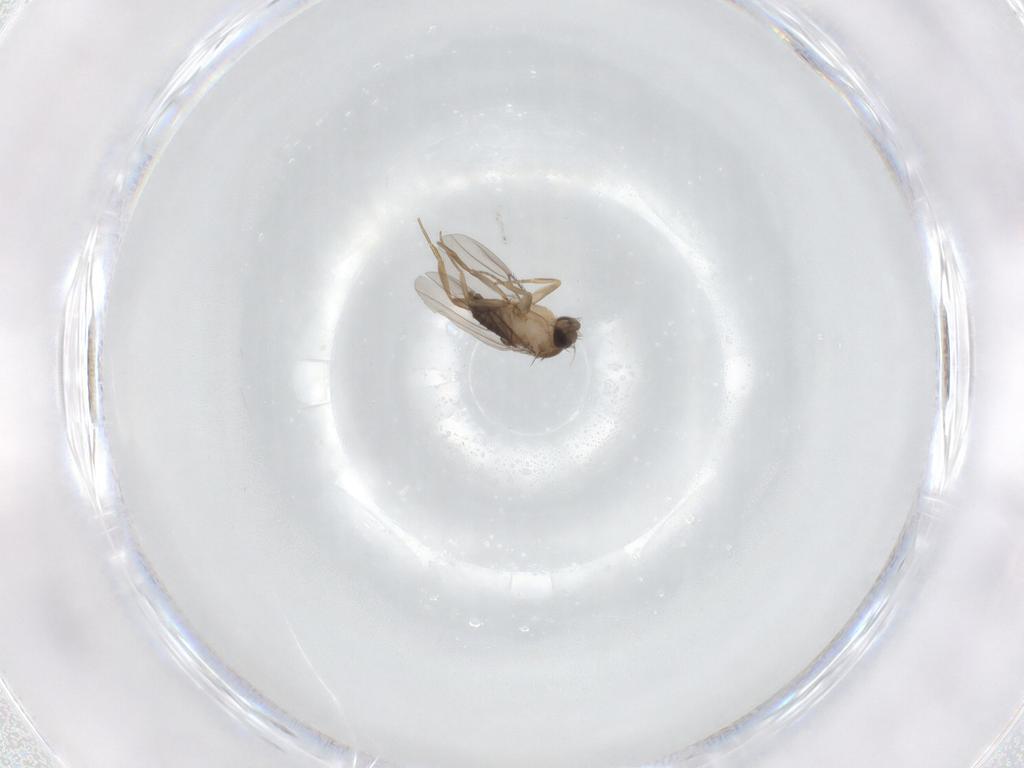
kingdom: Animalia
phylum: Arthropoda
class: Insecta
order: Diptera
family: Phoridae
